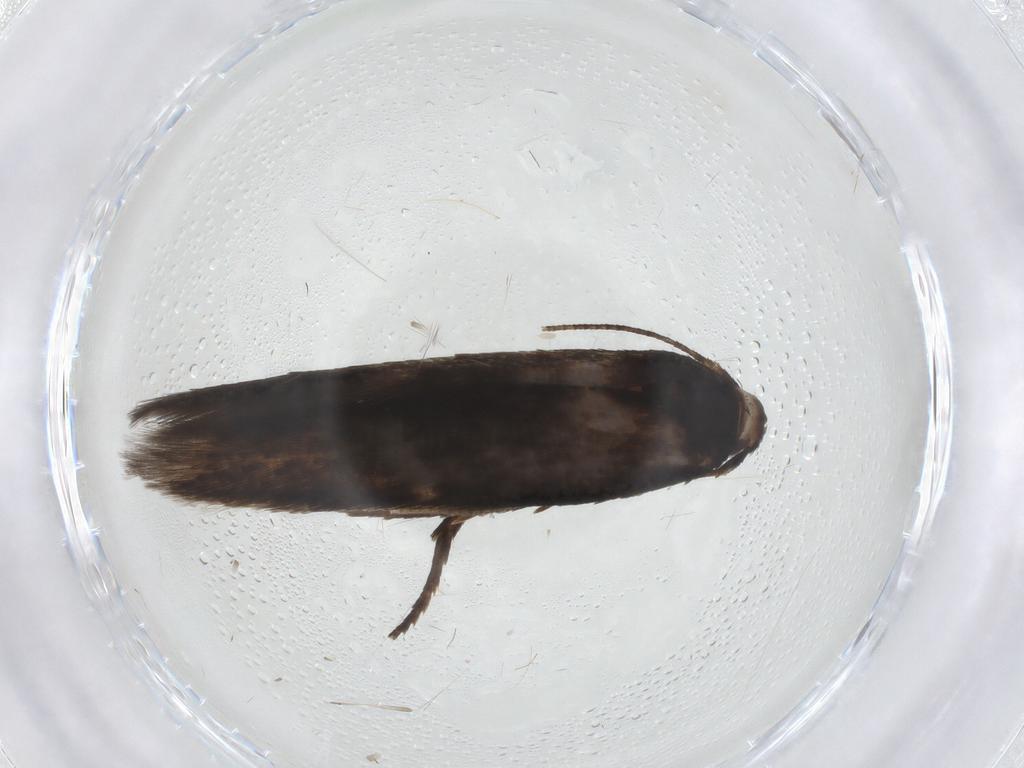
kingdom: Animalia
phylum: Arthropoda
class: Insecta
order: Lepidoptera
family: Cosmopterigidae
